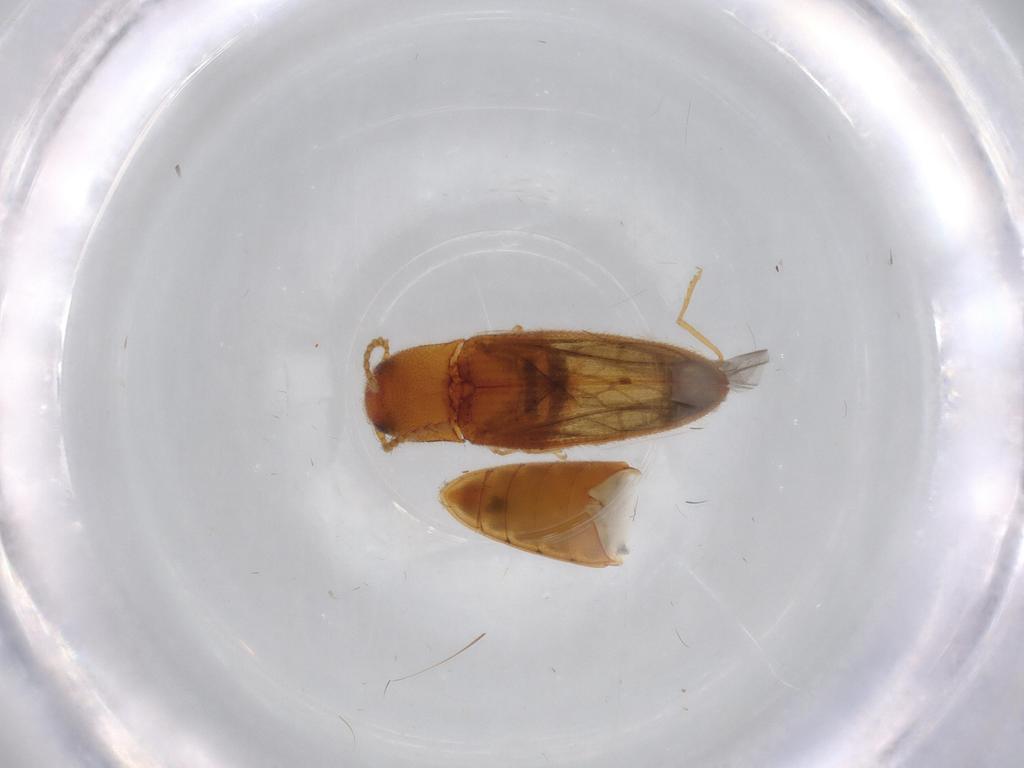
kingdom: Animalia
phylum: Arthropoda
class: Insecta
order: Coleoptera
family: Elateridae
